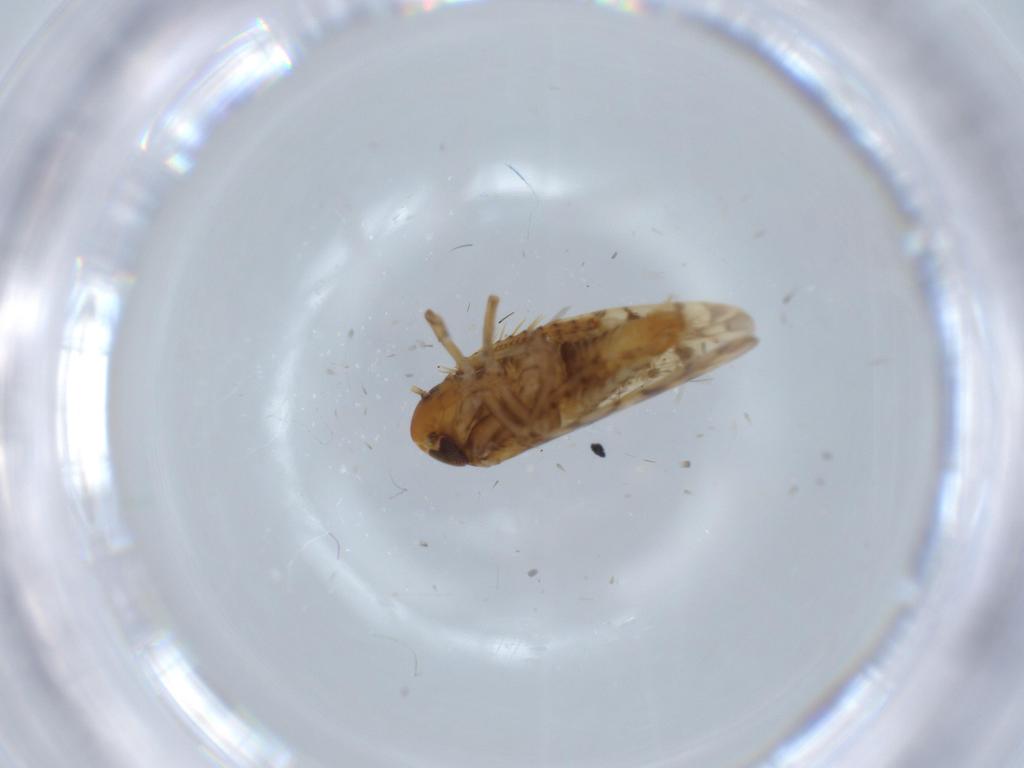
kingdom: Animalia
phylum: Arthropoda
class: Insecta
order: Hemiptera
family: Cicadellidae
